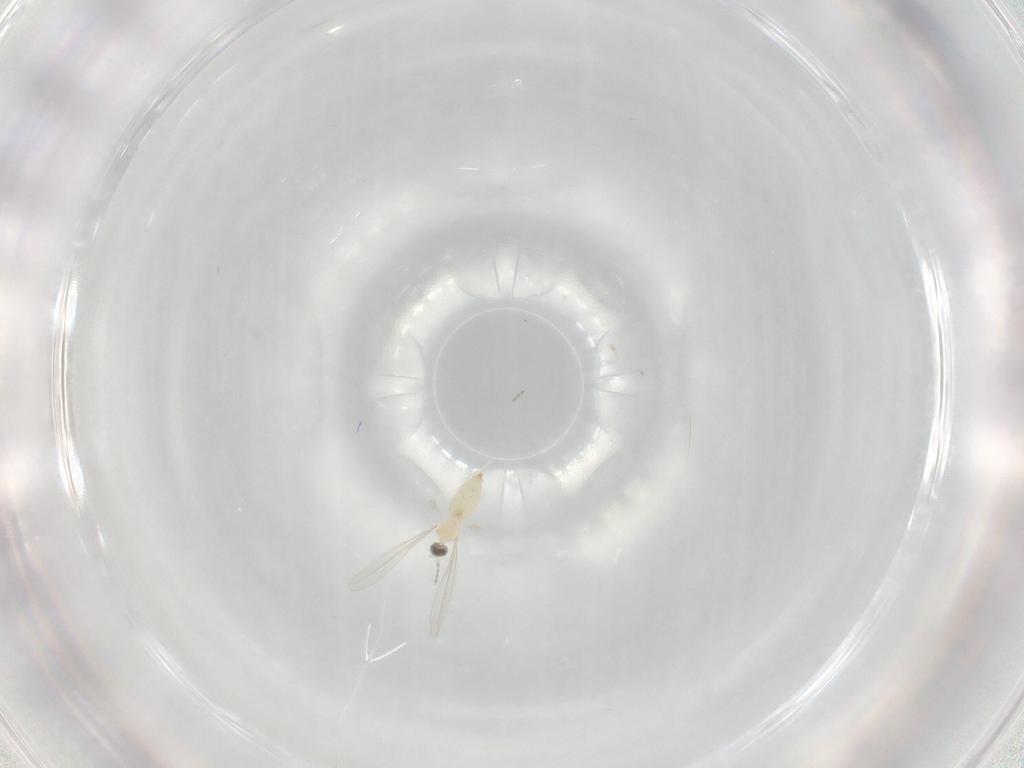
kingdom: Animalia
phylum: Arthropoda
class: Insecta
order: Diptera
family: Cecidomyiidae
